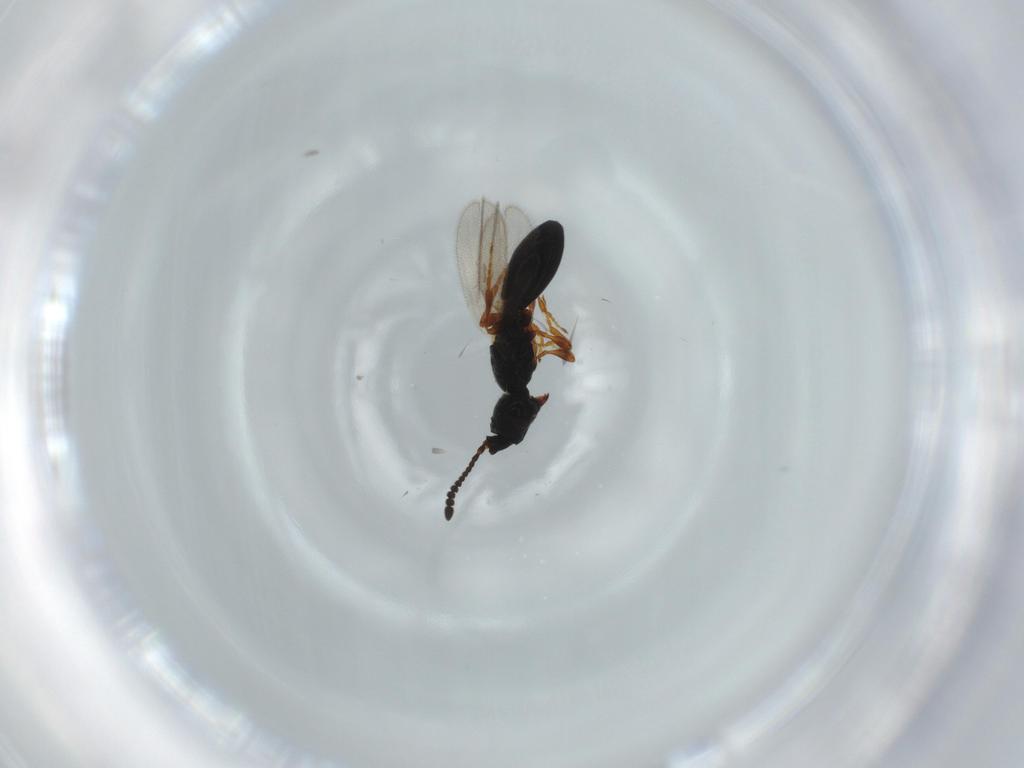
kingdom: Animalia
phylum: Arthropoda
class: Insecta
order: Hymenoptera
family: Diapriidae
